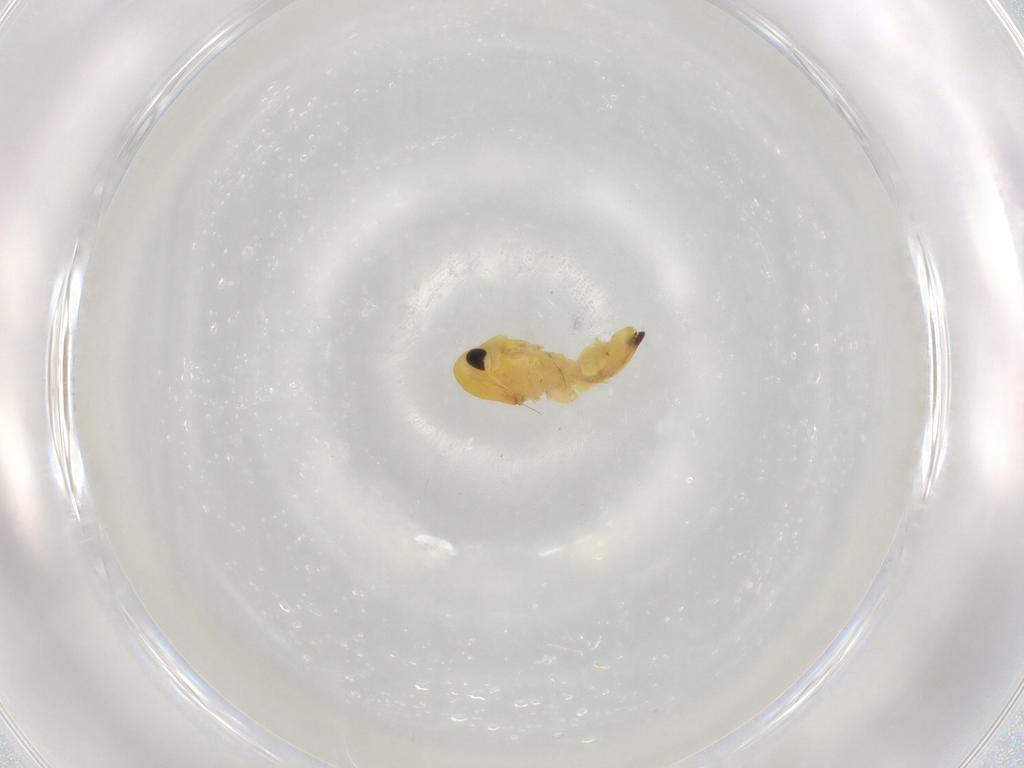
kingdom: Animalia
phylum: Arthropoda
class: Insecta
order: Hemiptera
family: Cicadellidae
